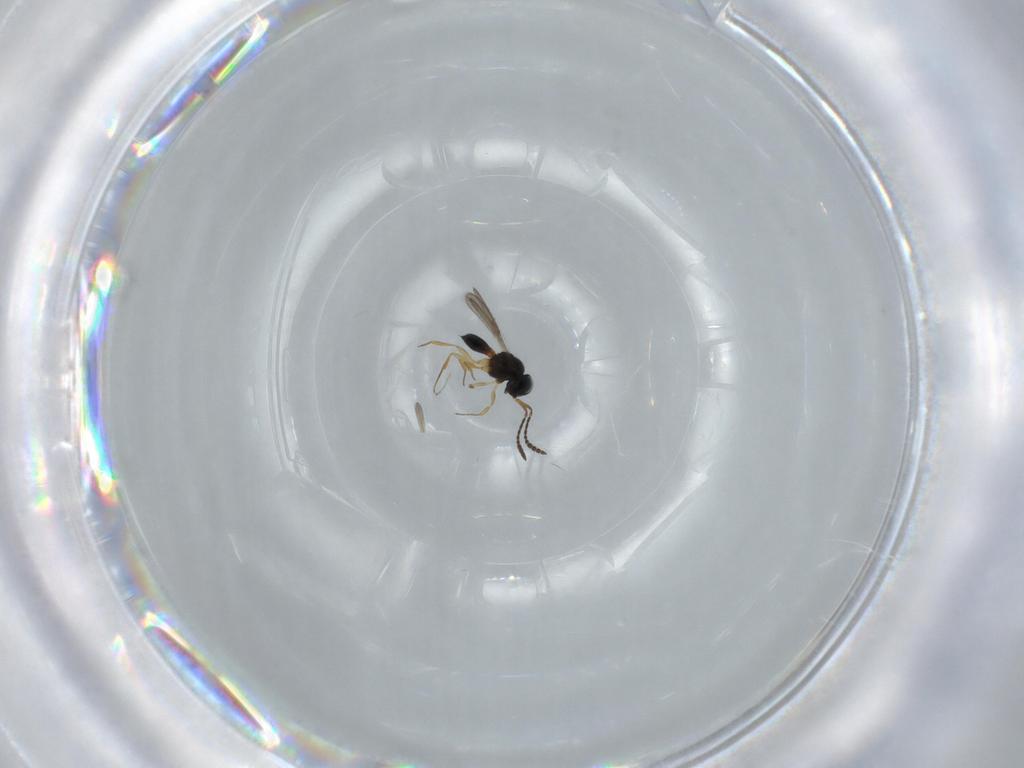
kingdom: Animalia
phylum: Arthropoda
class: Insecta
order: Hymenoptera
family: Scelionidae
